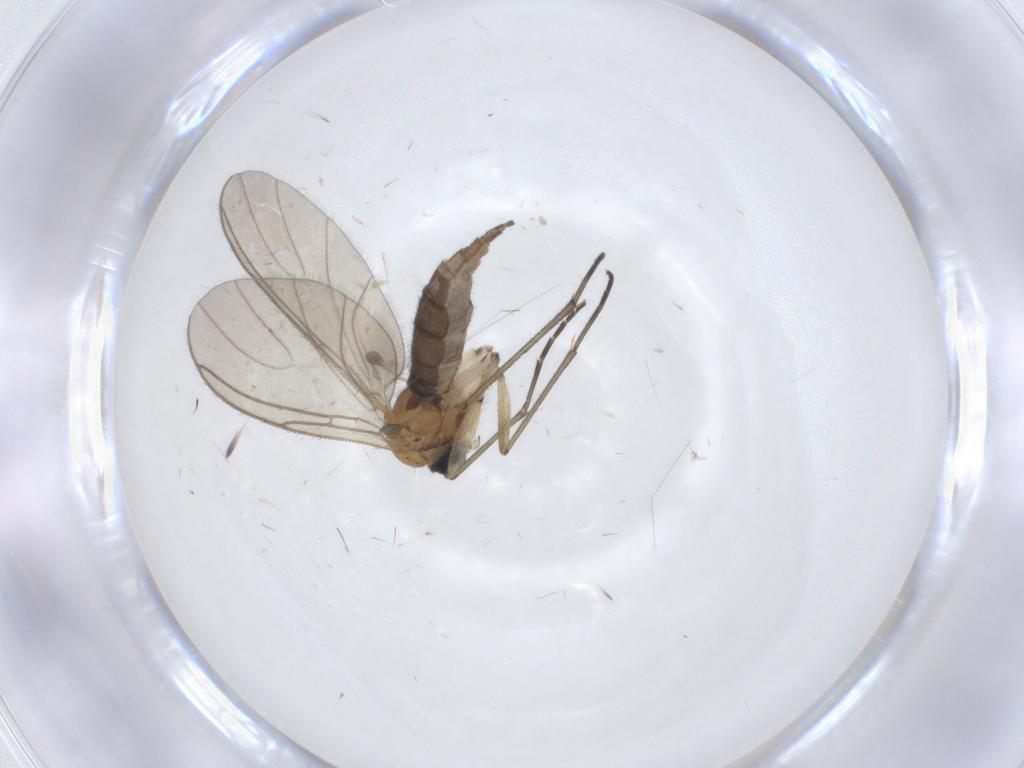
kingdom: Animalia
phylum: Arthropoda
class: Insecta
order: Diptera
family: Sciaridae
